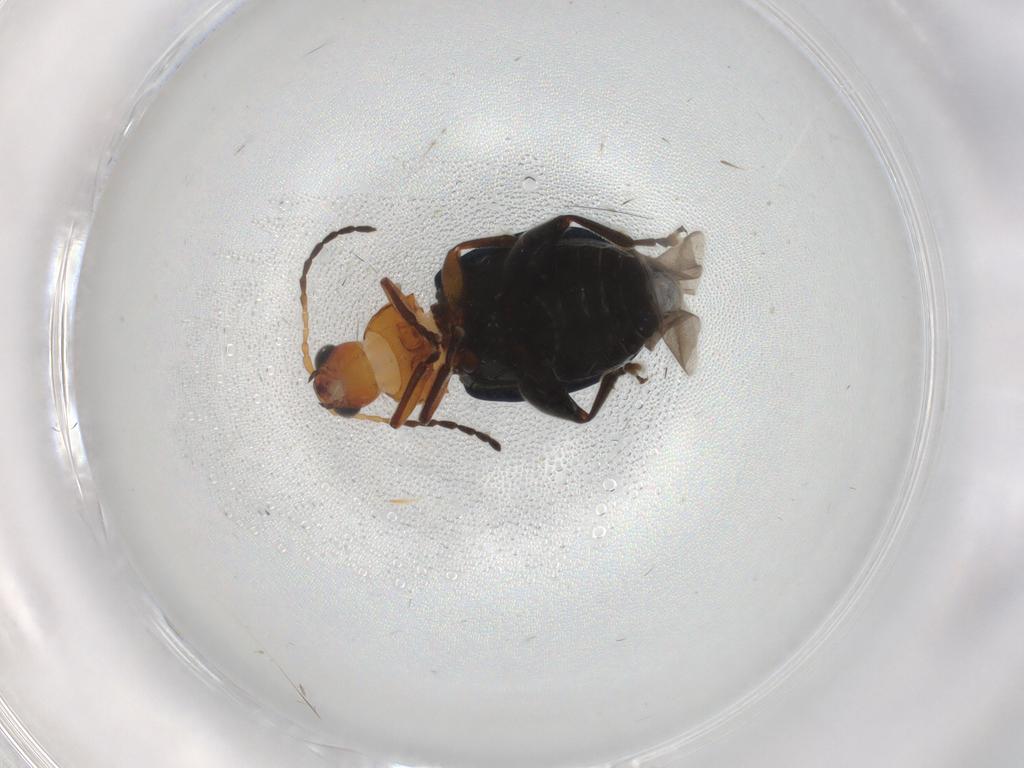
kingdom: Animalia
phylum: Arthropoda
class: Insecta
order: Coleoptera
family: Chrysomelidae
